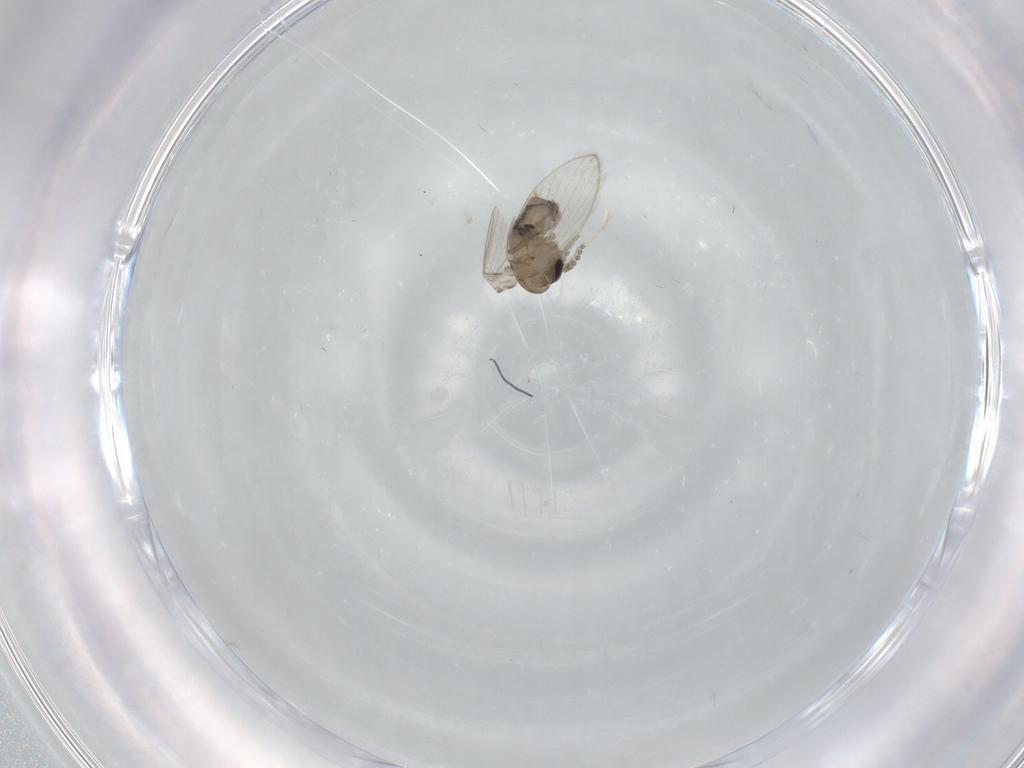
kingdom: Animalia
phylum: Arthropoda
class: Insecta
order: Diptera
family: Psychodidae
